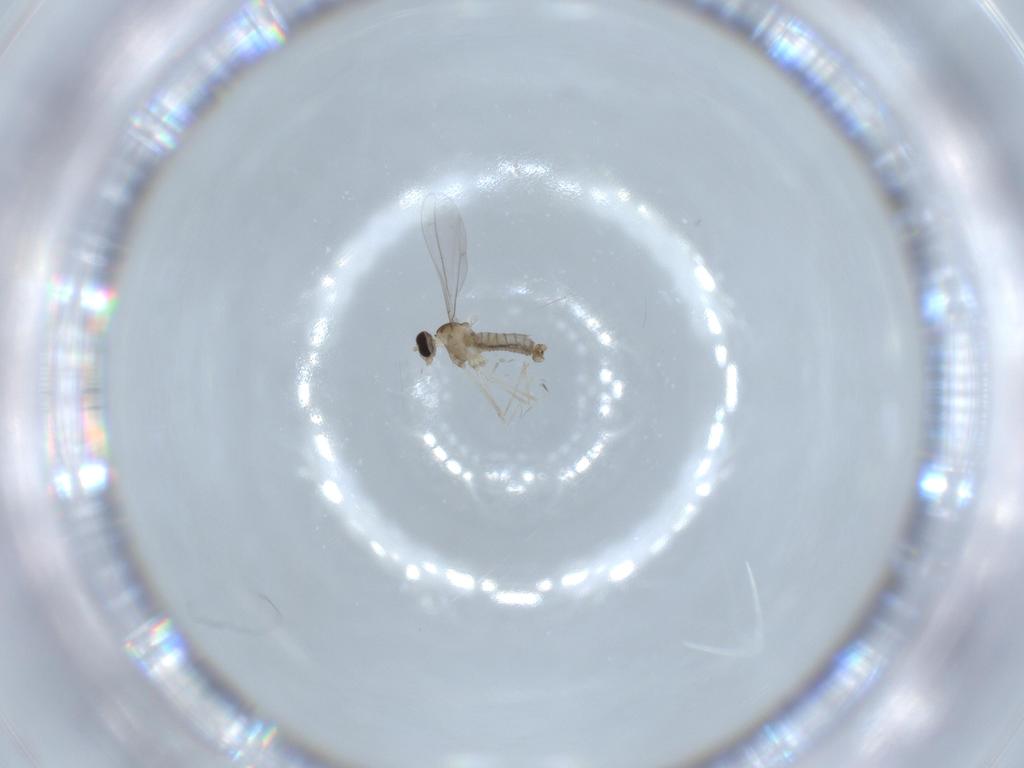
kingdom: Animalia
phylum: Arthropoda
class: Insecta
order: Diptera
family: Cecidomyiidae
